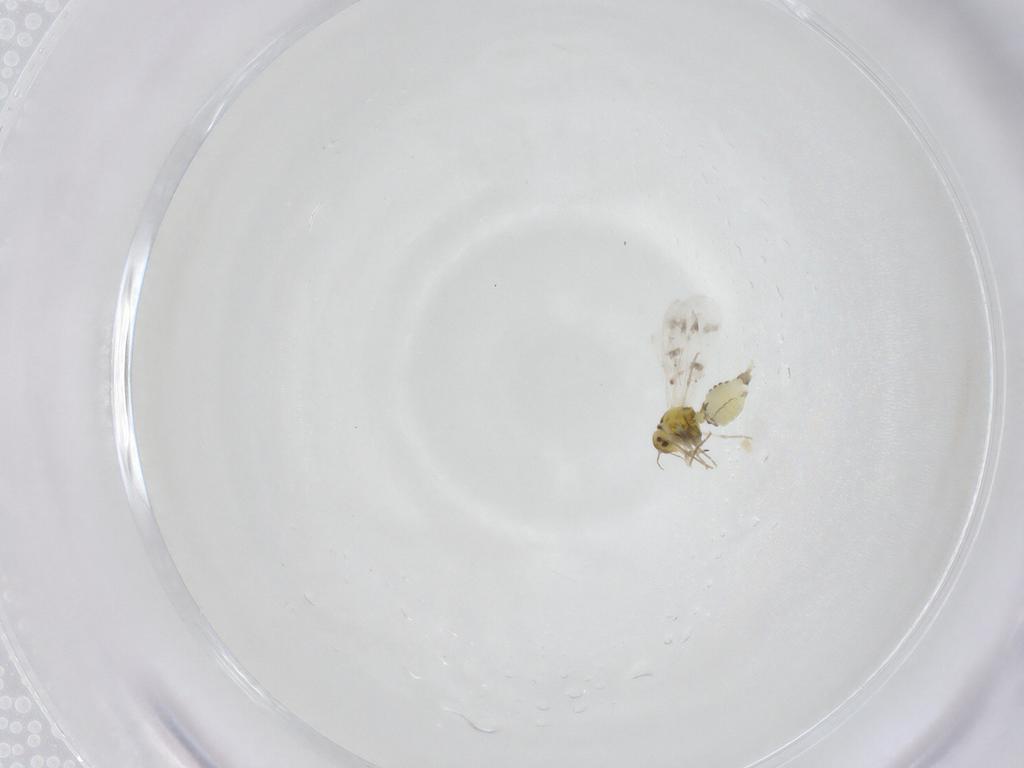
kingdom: Animalia
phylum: Arthropoda
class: Insecta
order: Hemiptera
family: Aleyrodidae
